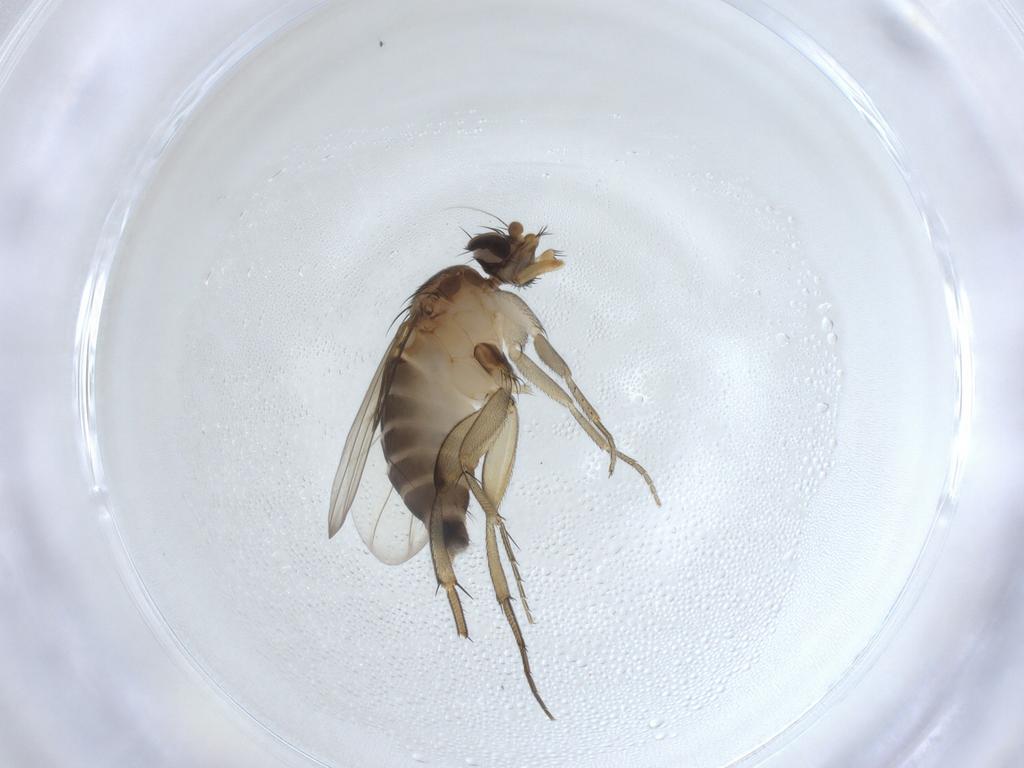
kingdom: Animalia
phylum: Arthropoda
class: Insecta
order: Diptera
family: Phoridae
